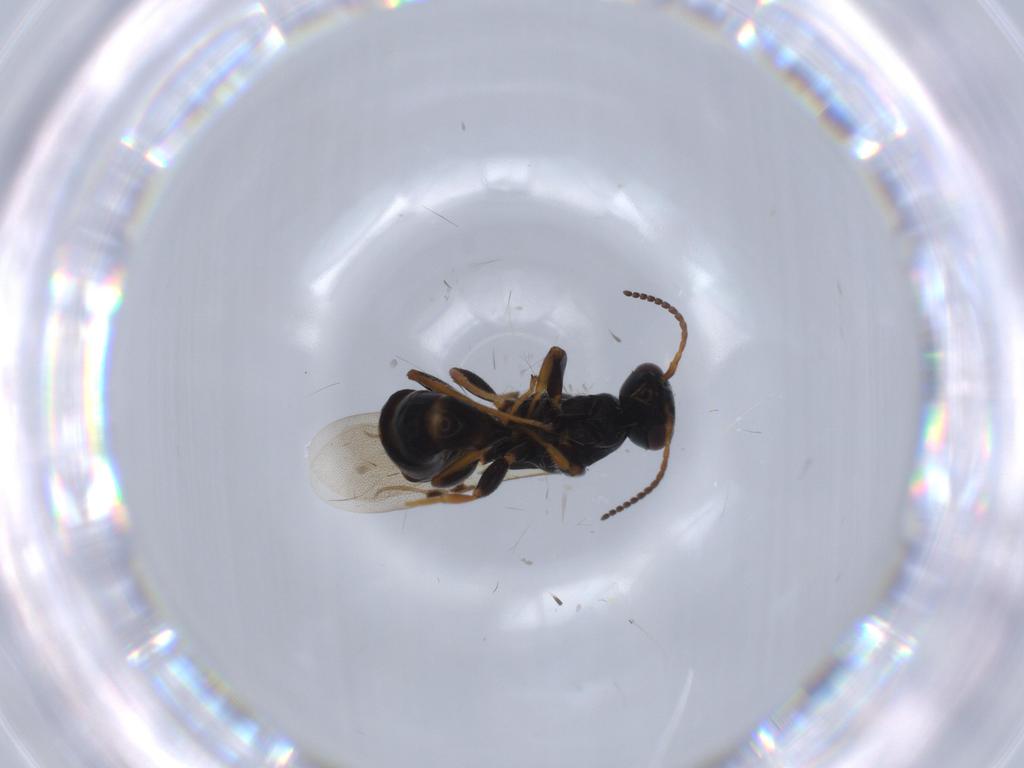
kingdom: Animalia
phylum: Arthropoda
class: Insecta
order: Hymenoptera
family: Bethylidae
